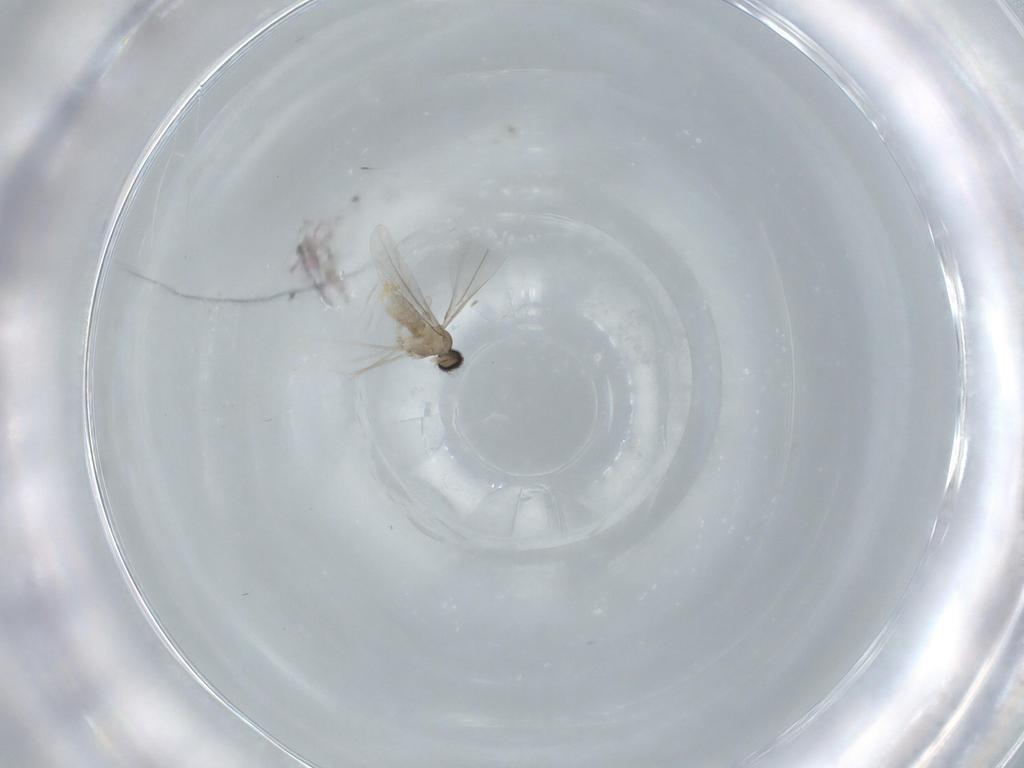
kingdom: Animalia
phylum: Arthropoda
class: Insecta
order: Diptera
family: Cecidomyiidae
